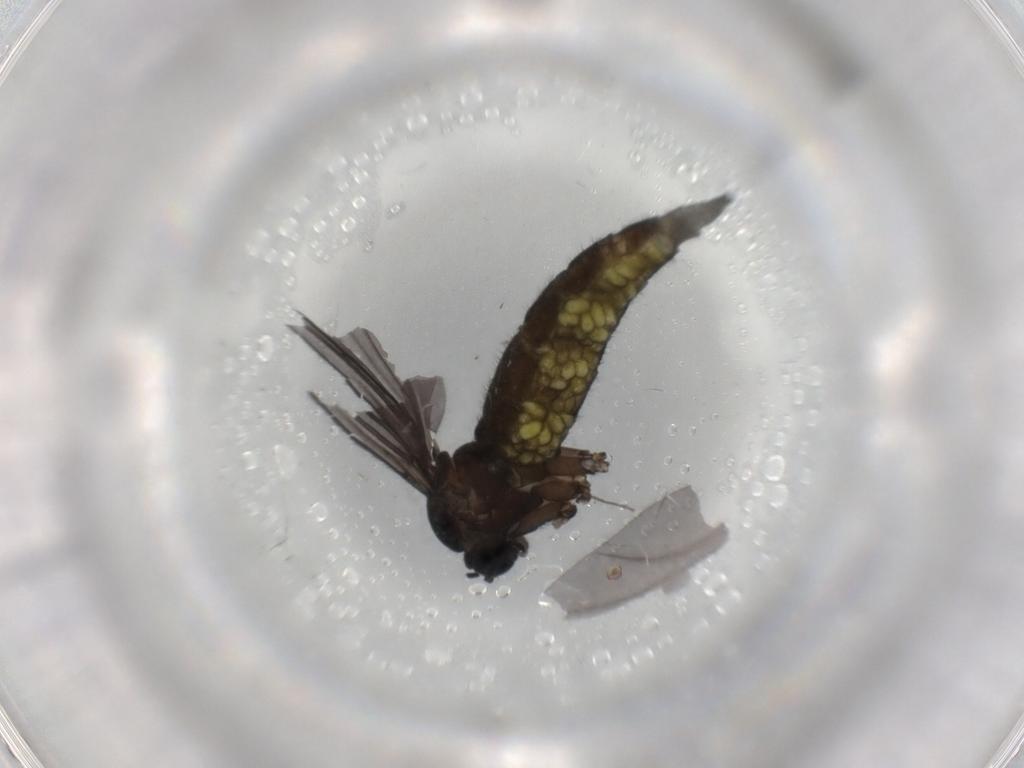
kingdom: Animalia
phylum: Arthropoda
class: Insecta
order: Diptera
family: Sciaridae
